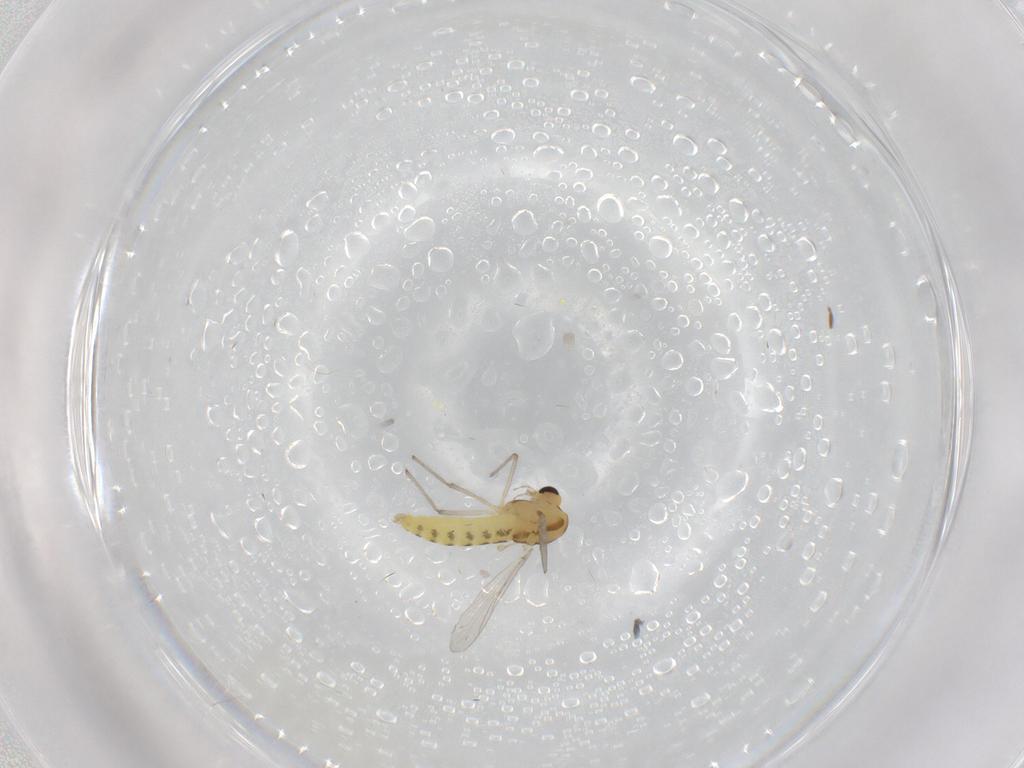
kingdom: Animalia
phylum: Arthropoda
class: Insecta
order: Diptera
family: Chironomidae
